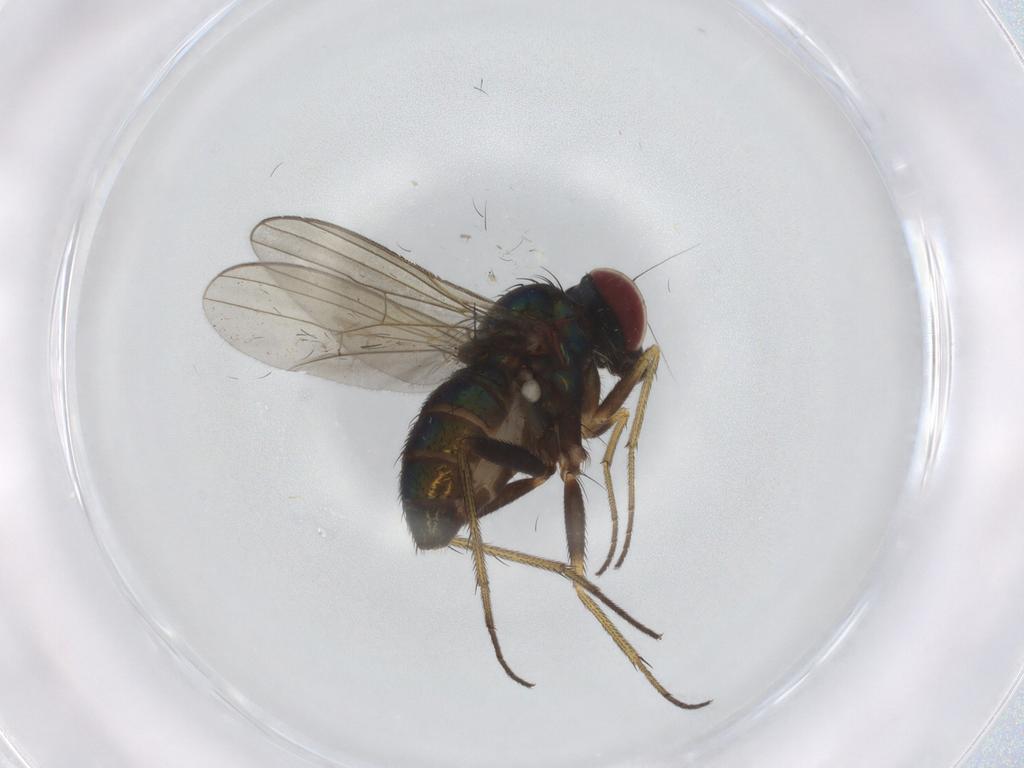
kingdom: Animalia
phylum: Arthropoda
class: Insecta
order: Diptera
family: Dolichopodidae
